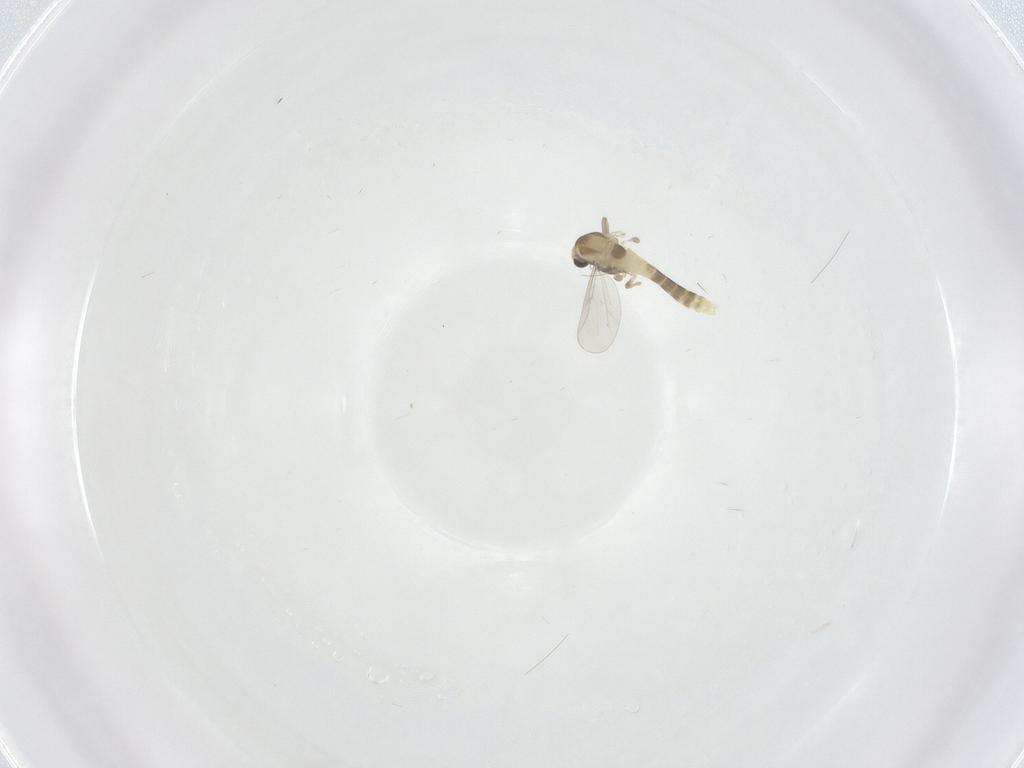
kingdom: Animalia
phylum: Arthropoda
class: Insecta
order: Diptera
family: Chironomidae
